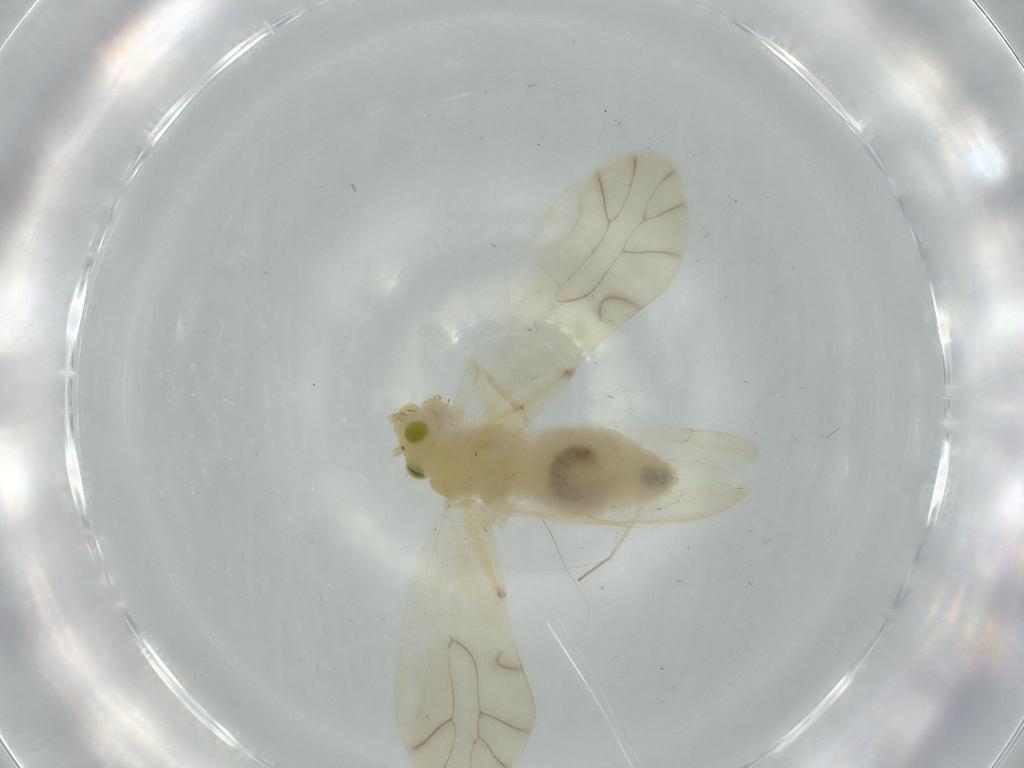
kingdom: Animalia
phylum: Arthropoda
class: Insecta
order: Psocodea
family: Caeciliusidae
